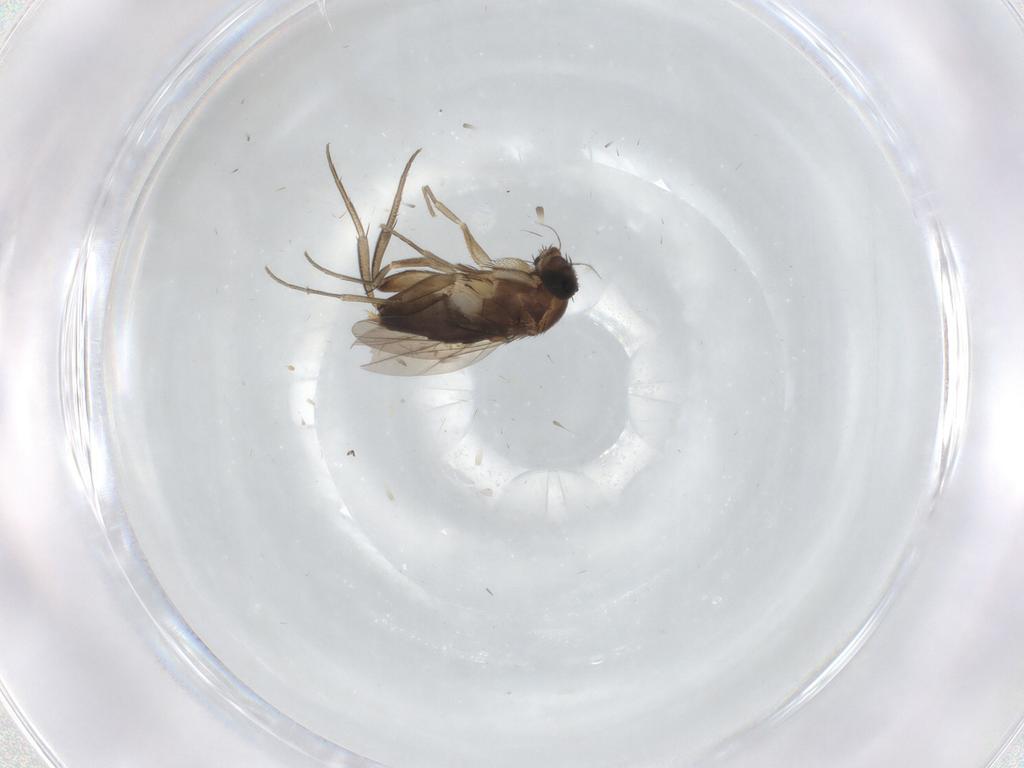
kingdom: Animalia
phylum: Arthropoda
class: Insecta
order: Diptera
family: Phoridae
